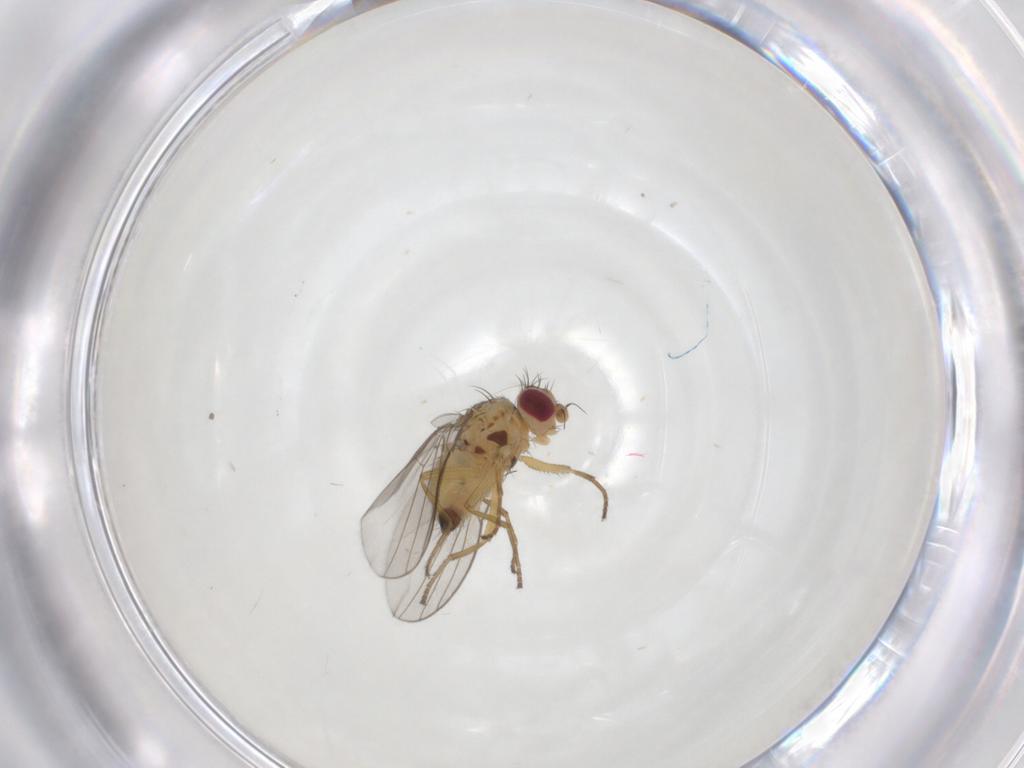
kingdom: Animalia
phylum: Arthropoda
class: Insecta
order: Diptera
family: Agromyzidae
